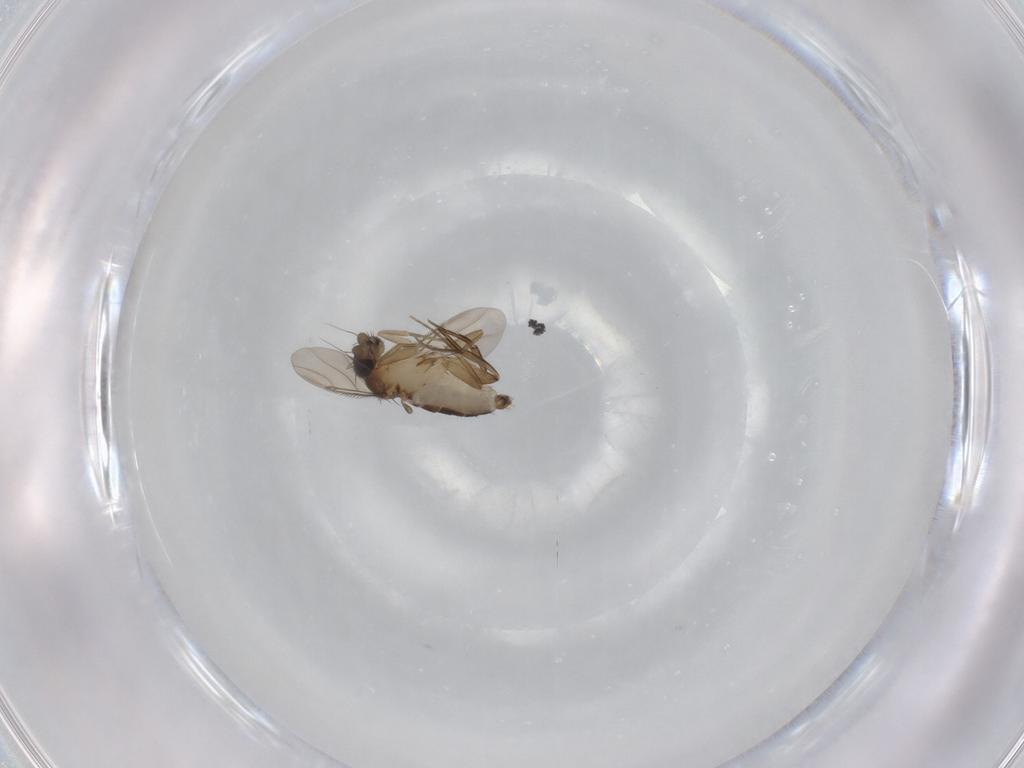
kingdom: Animalia
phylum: Arthropoda
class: Insecta
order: Diptera
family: Phoridae
